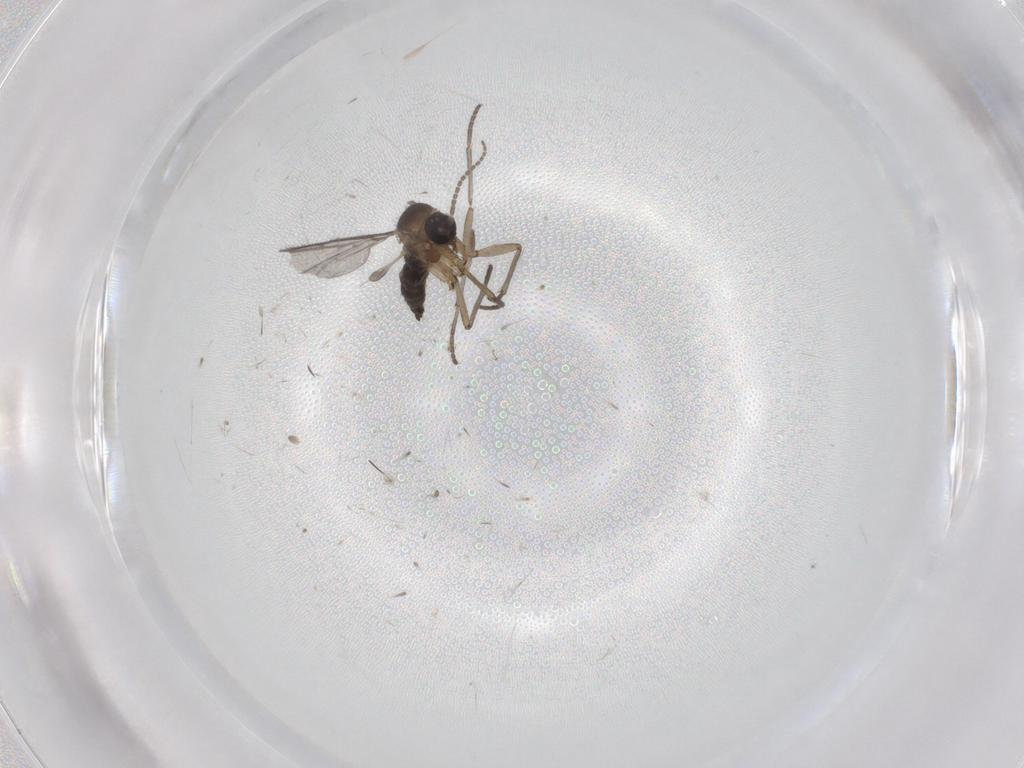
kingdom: Animalia
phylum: Arthropoda
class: Insecta
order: Diptera
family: Sciaridae
